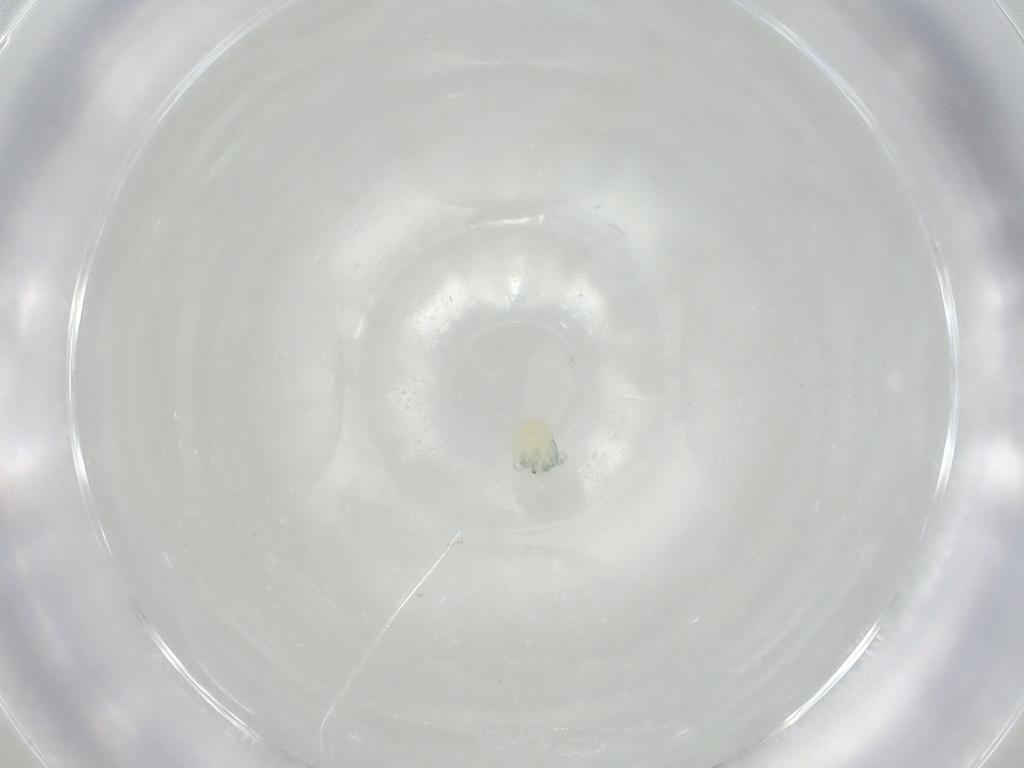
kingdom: Animalia
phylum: Arthropoda
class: Arachnida
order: Trombidiformes
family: Arrenuridae
